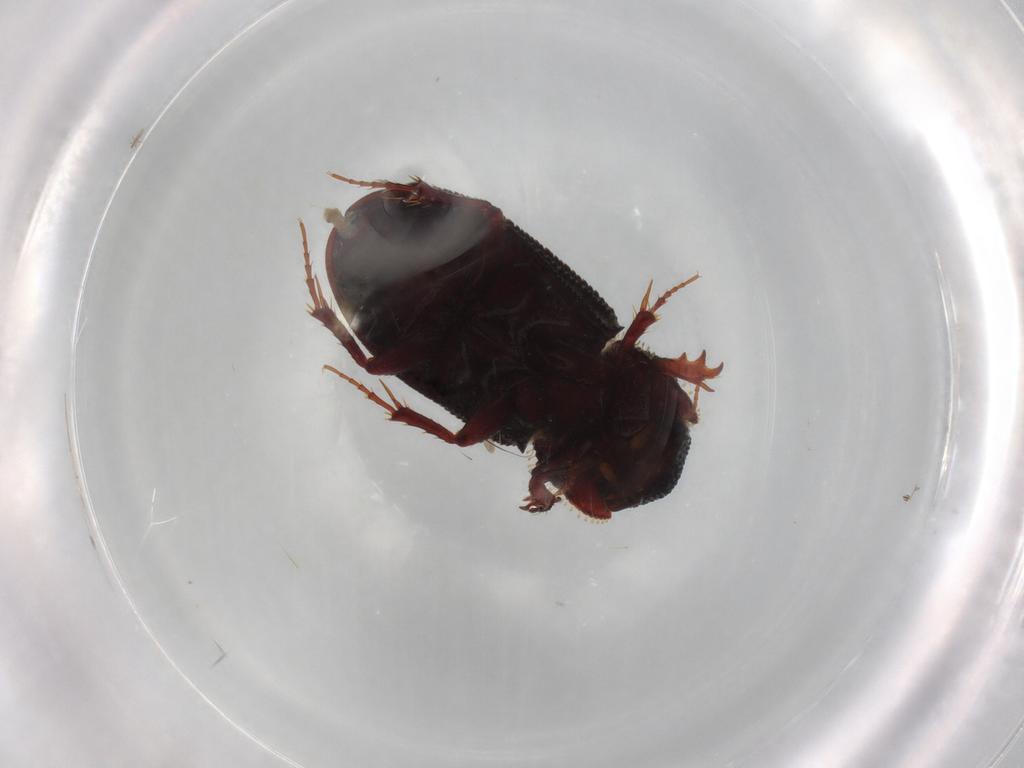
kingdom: Animalia
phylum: Arthropoda
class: Insecta
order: Coleoptera
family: Scarabaeidae
